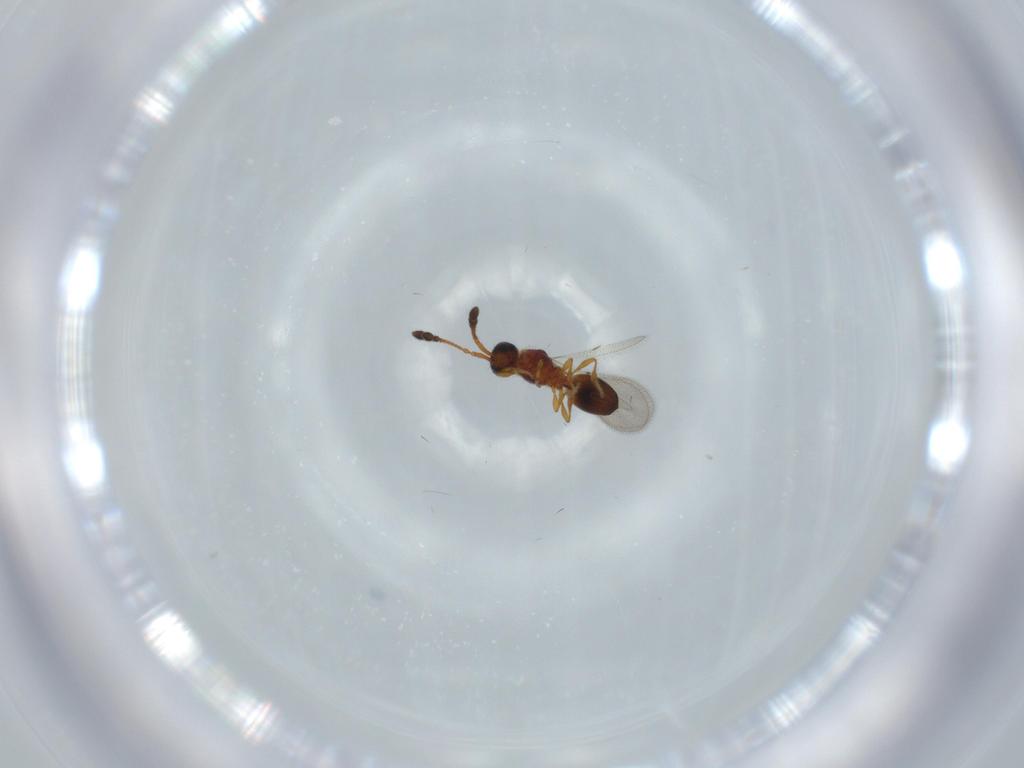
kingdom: Animalia
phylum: Arthropoda
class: Insecta
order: Hymenoptera
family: Diapriidae
